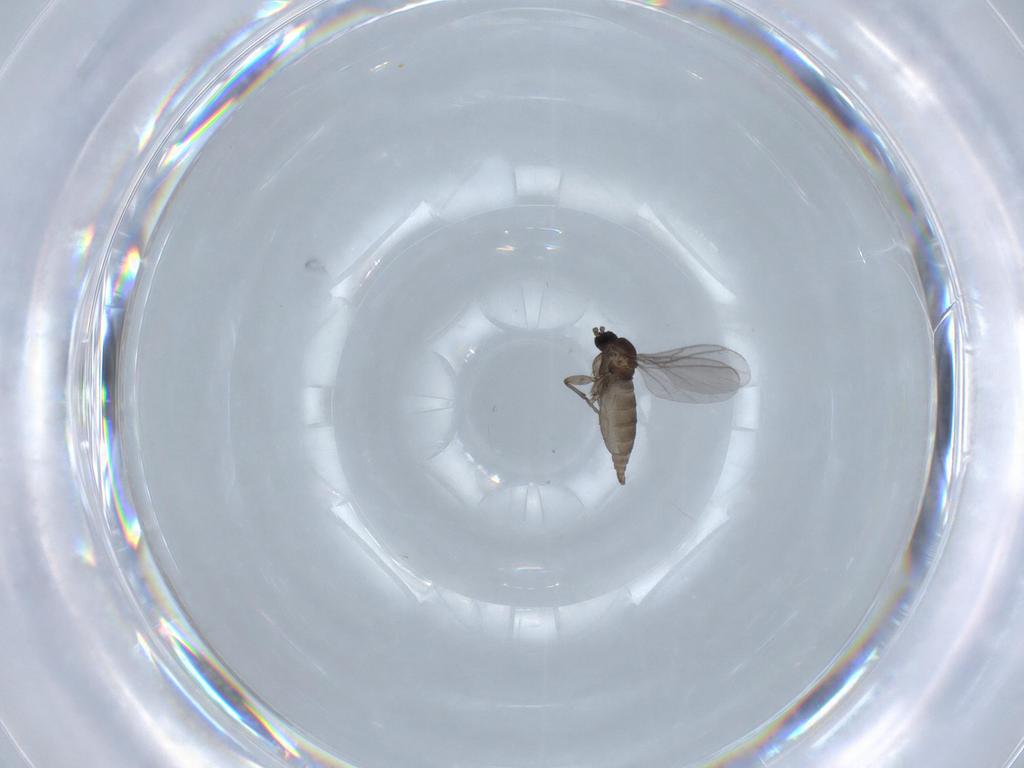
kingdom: Animalia
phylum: Arthropoda
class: Insecta
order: Diptera
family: Sciaridae
